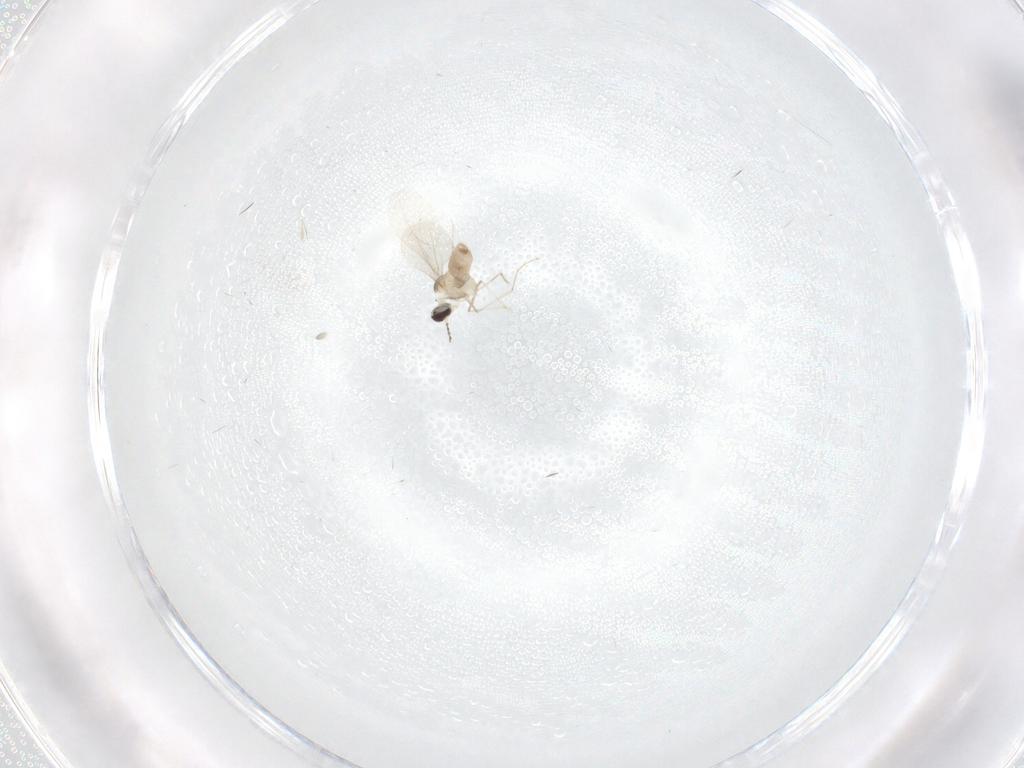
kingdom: Animalia
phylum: Arthropoda
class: Insecta
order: Diptera
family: Cecidomyiidae
